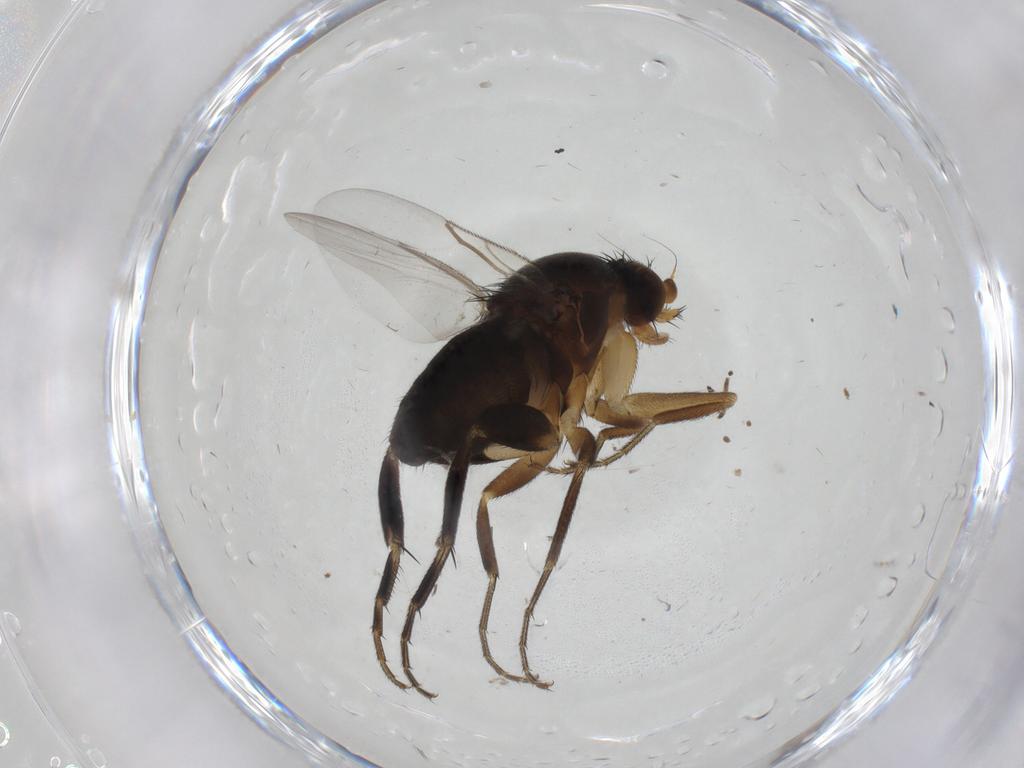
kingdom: Animalia
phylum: Arthropoda
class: Insecta
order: Diptera
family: Phoridae
